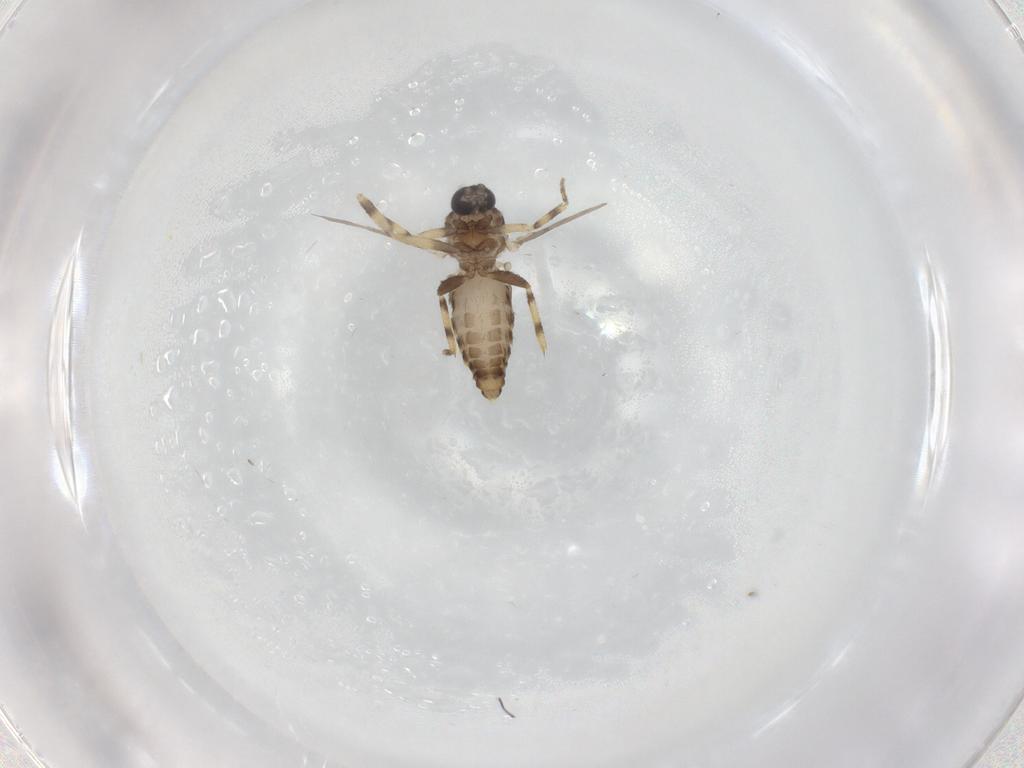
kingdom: Animalia
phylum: Arthropoda
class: Insecta
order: Diptera
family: Ceratopogonidae
